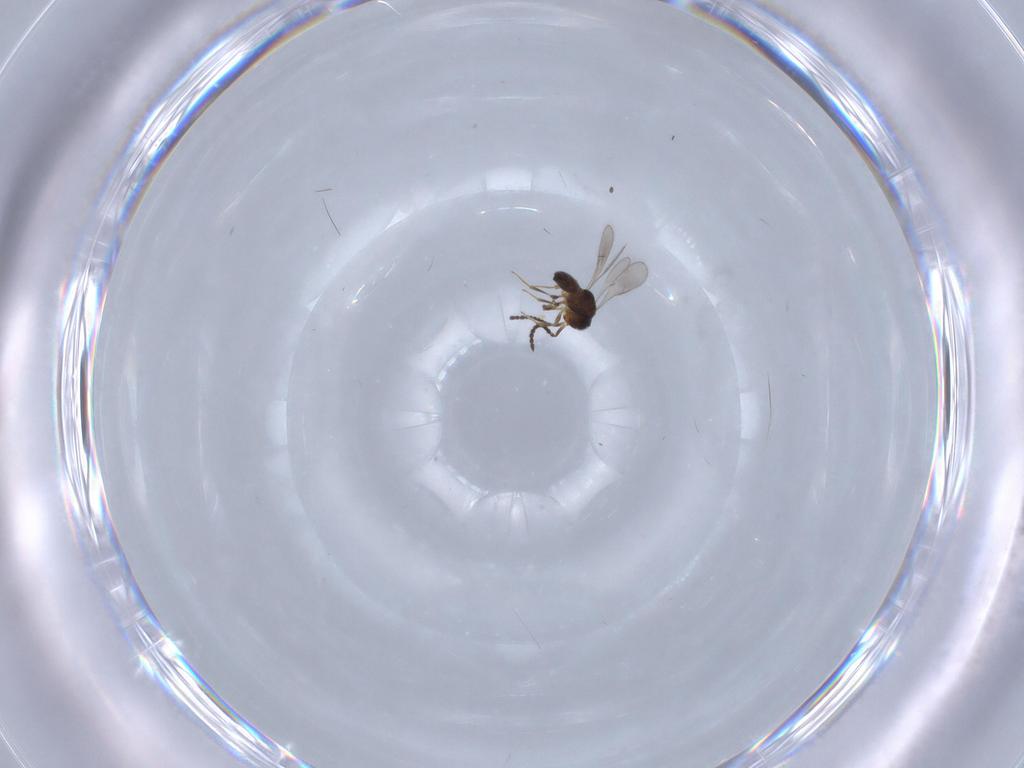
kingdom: Animalia
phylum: Arthropoda
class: Insecta
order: Hymenoptera
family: Scelionidae
